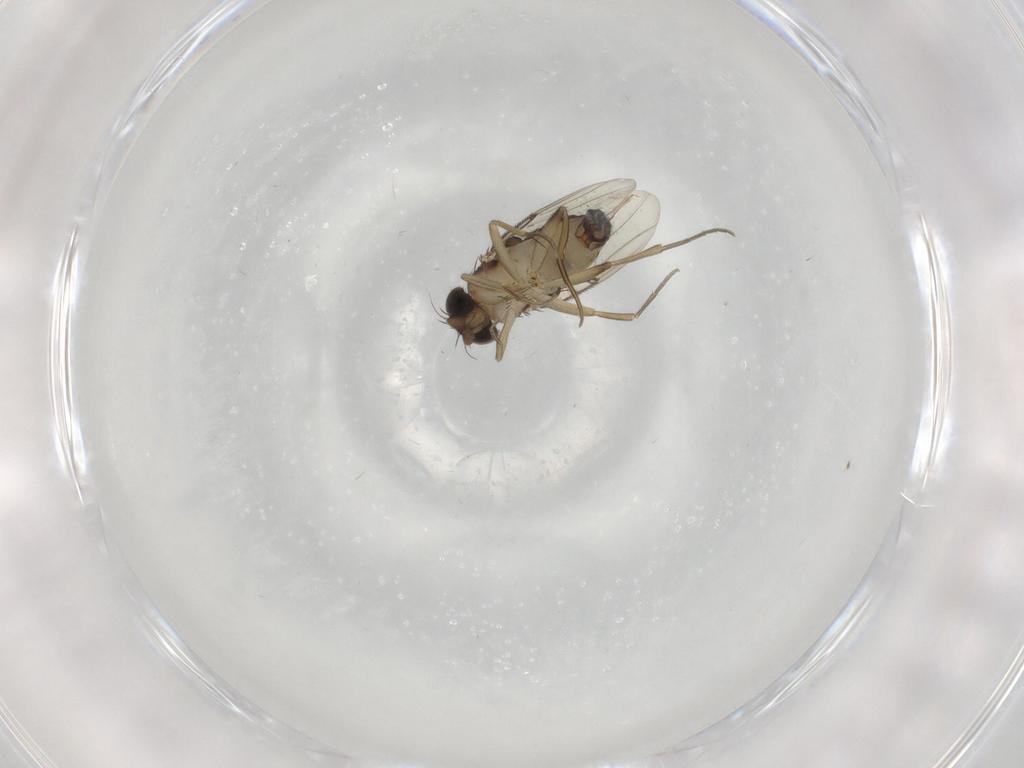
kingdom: Animalia
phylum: Arthropoda
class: Insecta
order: Diptera
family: Phoridae
